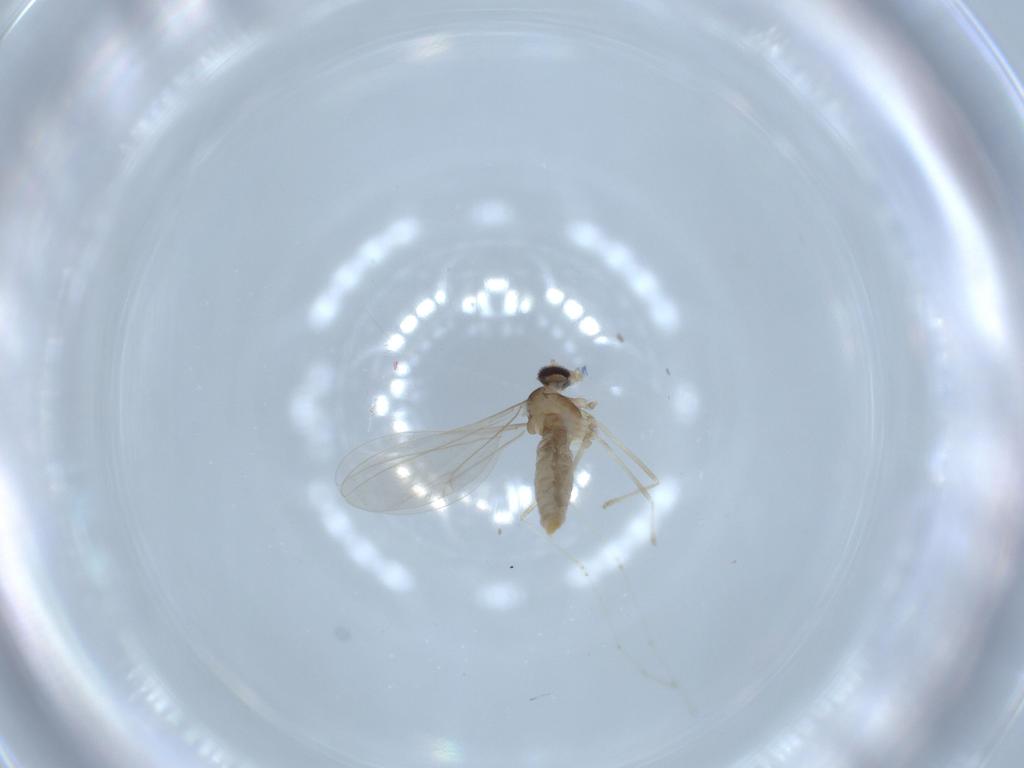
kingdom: Animalia
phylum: Arthropoda
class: Insecta
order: Diptera
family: Cecidomyiidae
